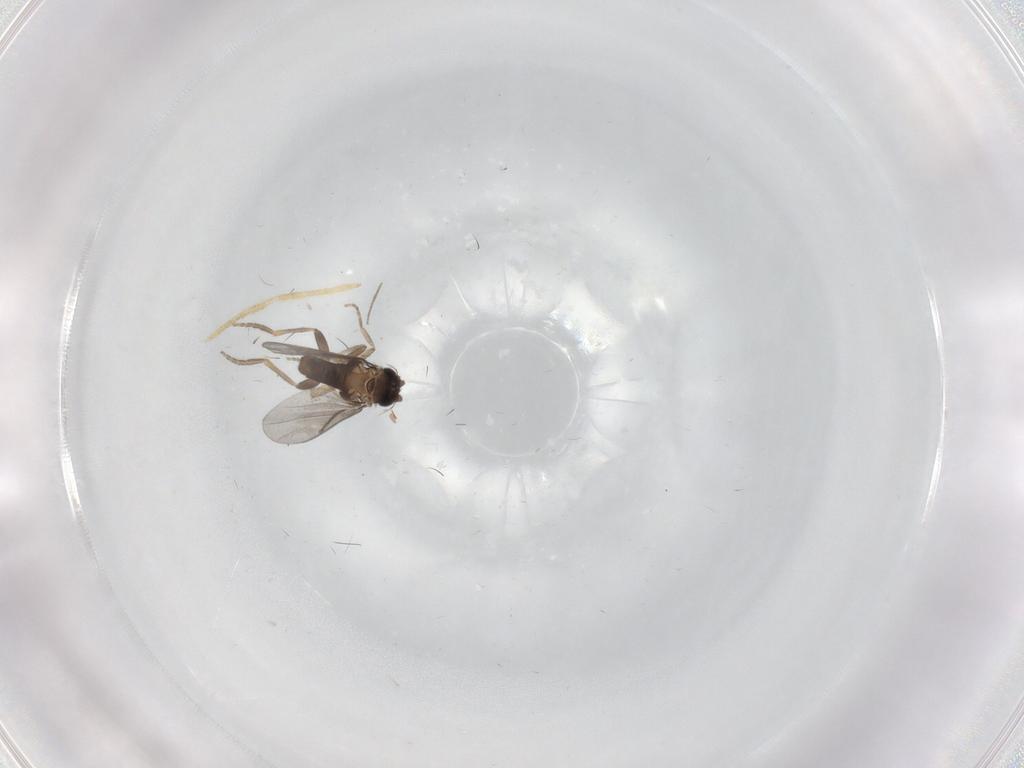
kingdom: Animalia
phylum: Arthropoda
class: Insecta
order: Diptera
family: Chironomidae
